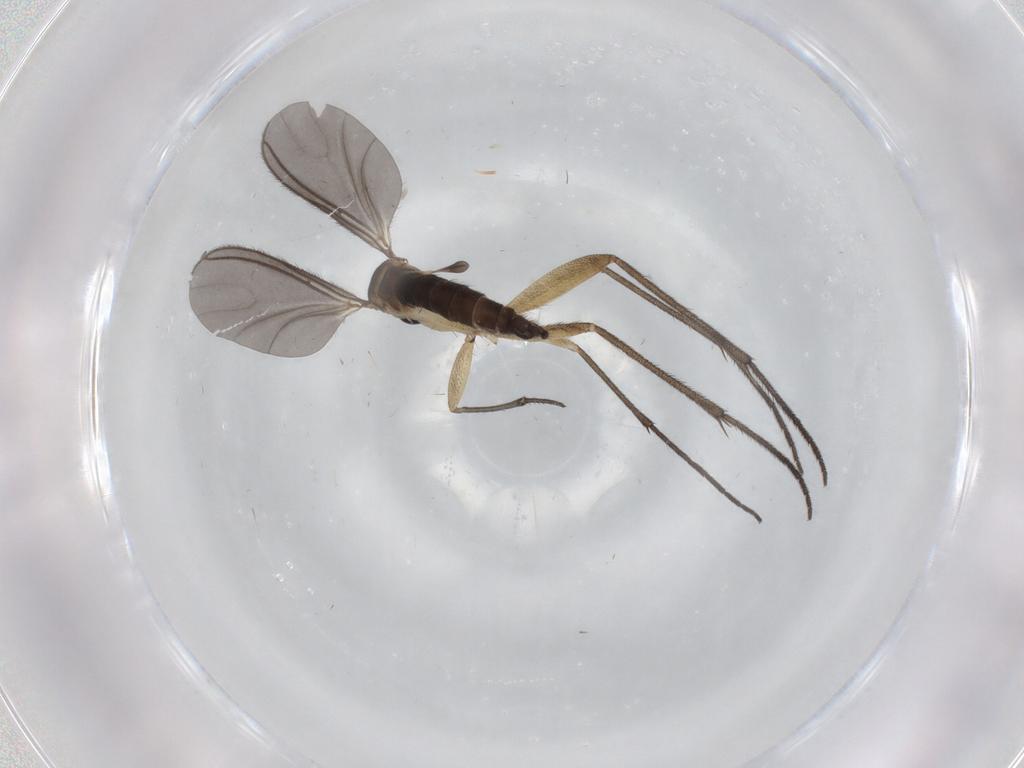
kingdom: Animalia
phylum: Arthropoda
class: Insecta
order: Diptera
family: Sciaridae
